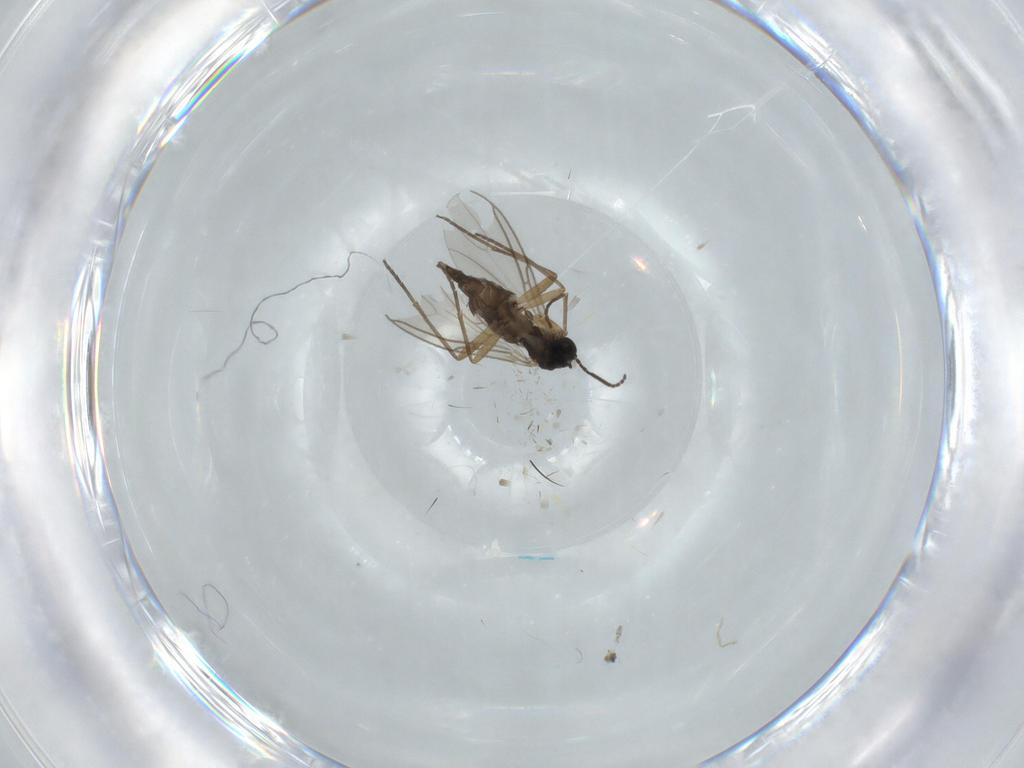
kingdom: Animalia
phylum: Arthropoda
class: Insecta
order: Diptera
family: Sciaridae
